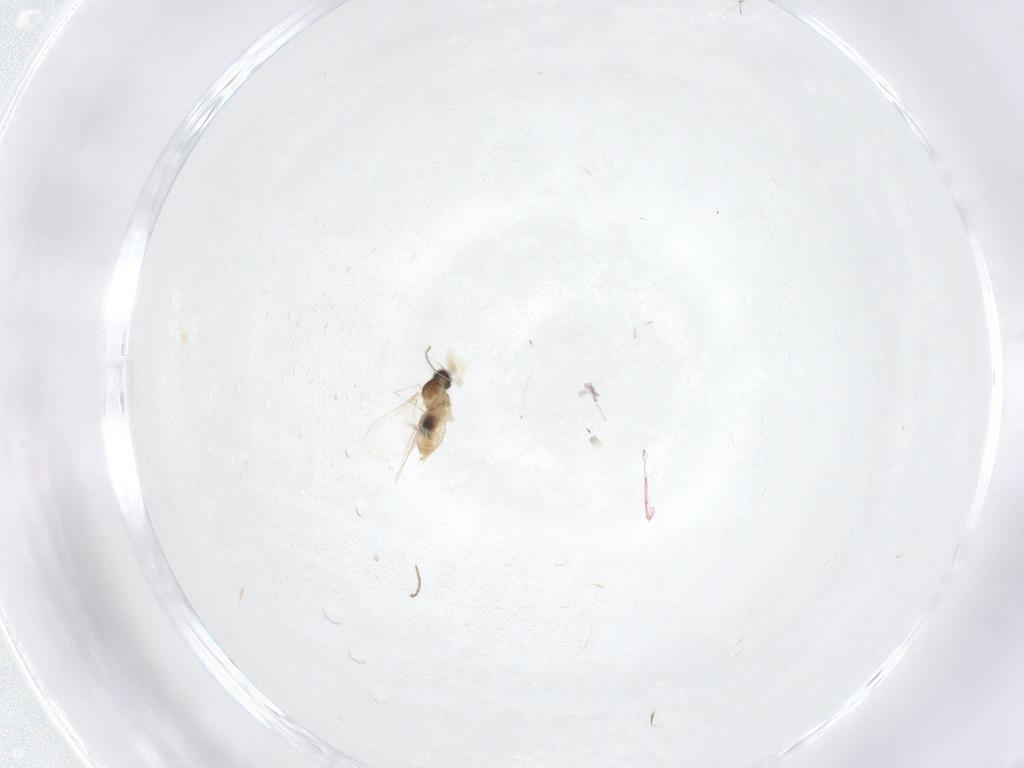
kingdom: Animalia
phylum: Arthropoda
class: Insecta
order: Diptera
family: Cecidomyiidae
